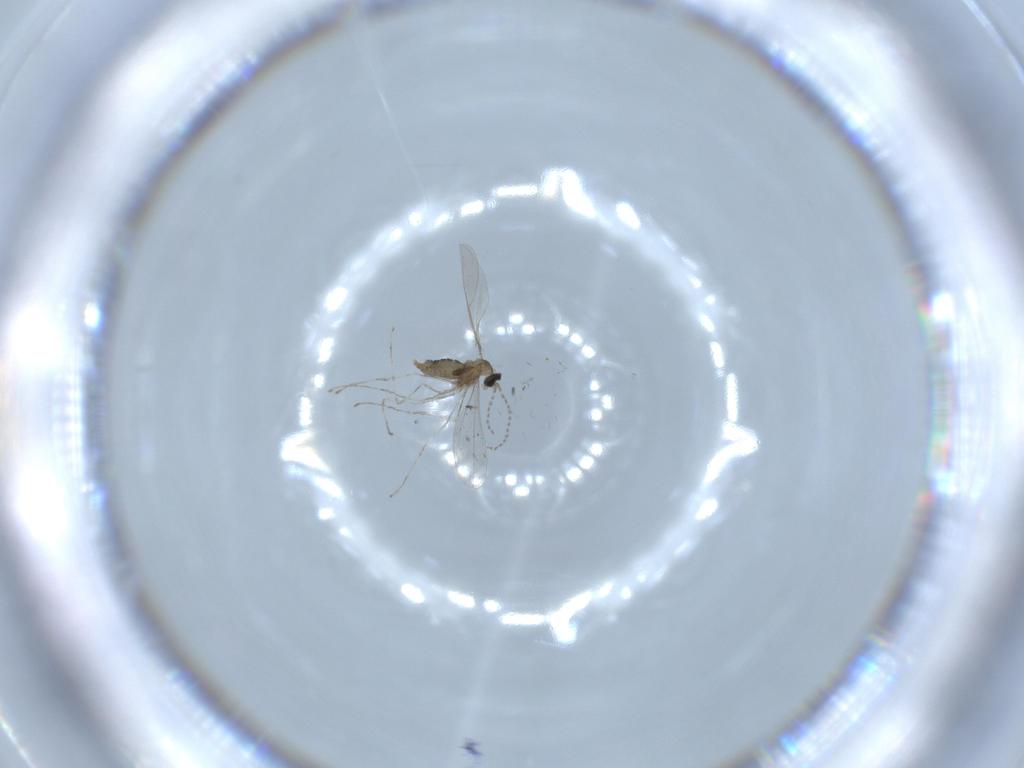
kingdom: Animalia
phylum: Arthropoda
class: Insecta
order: Diptera
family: Cecidomyiidae
